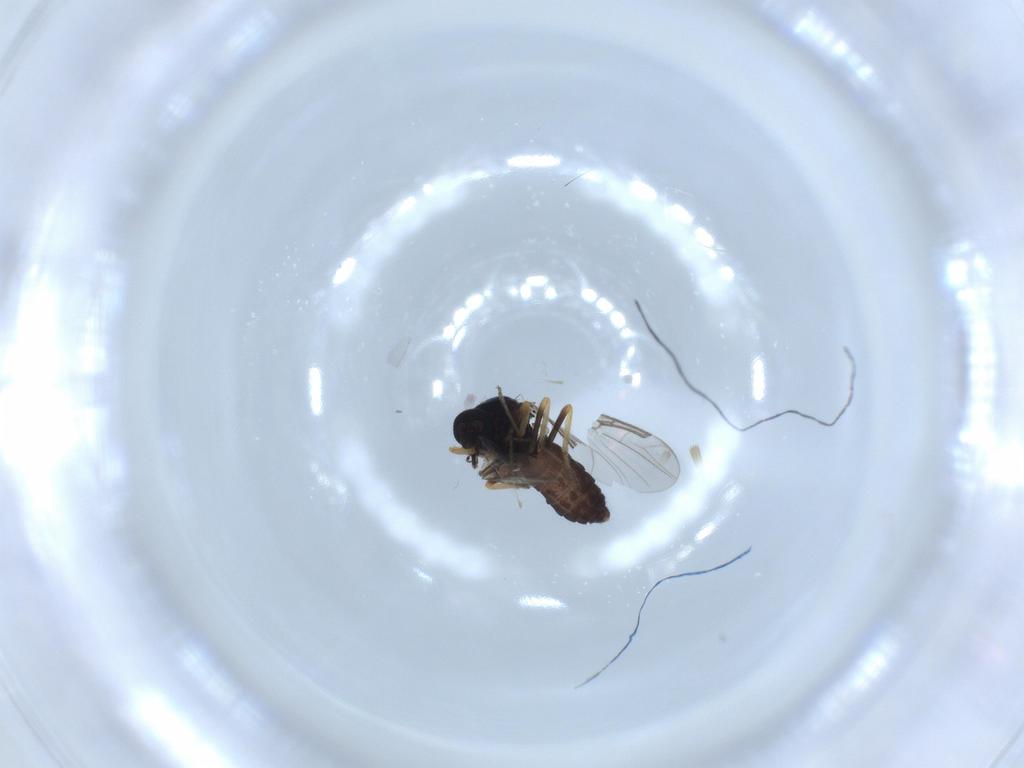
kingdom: Animalia
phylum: Arthropoda
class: Insecta
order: Diptera
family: Ceratopogonidae
